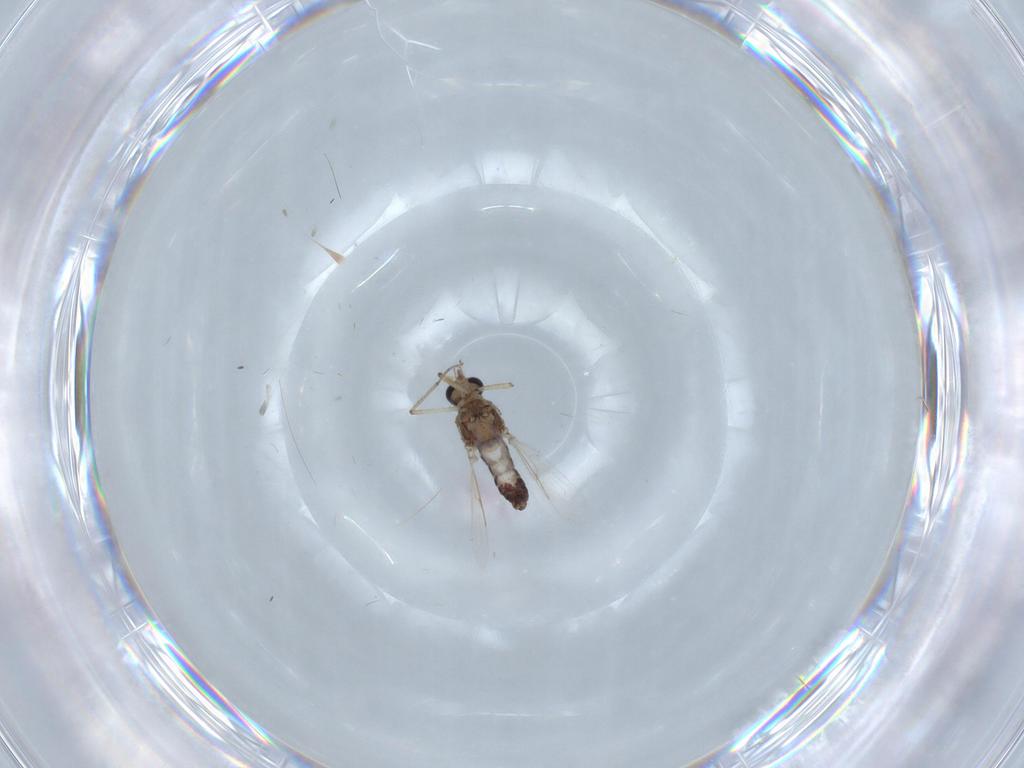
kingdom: Animalia
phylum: Arthropoda
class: Insecta
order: Diptera
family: Ceratopogonidae
